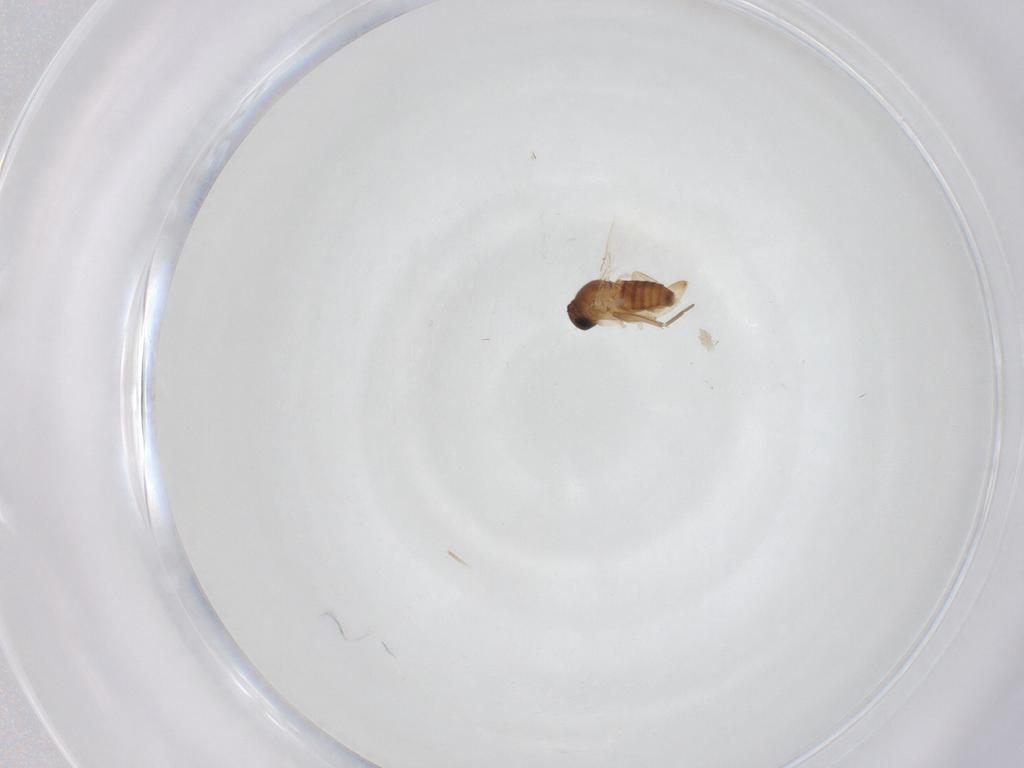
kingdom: Animalia
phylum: Arthropoda
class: Insecta
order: Diptera
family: Phoridae
